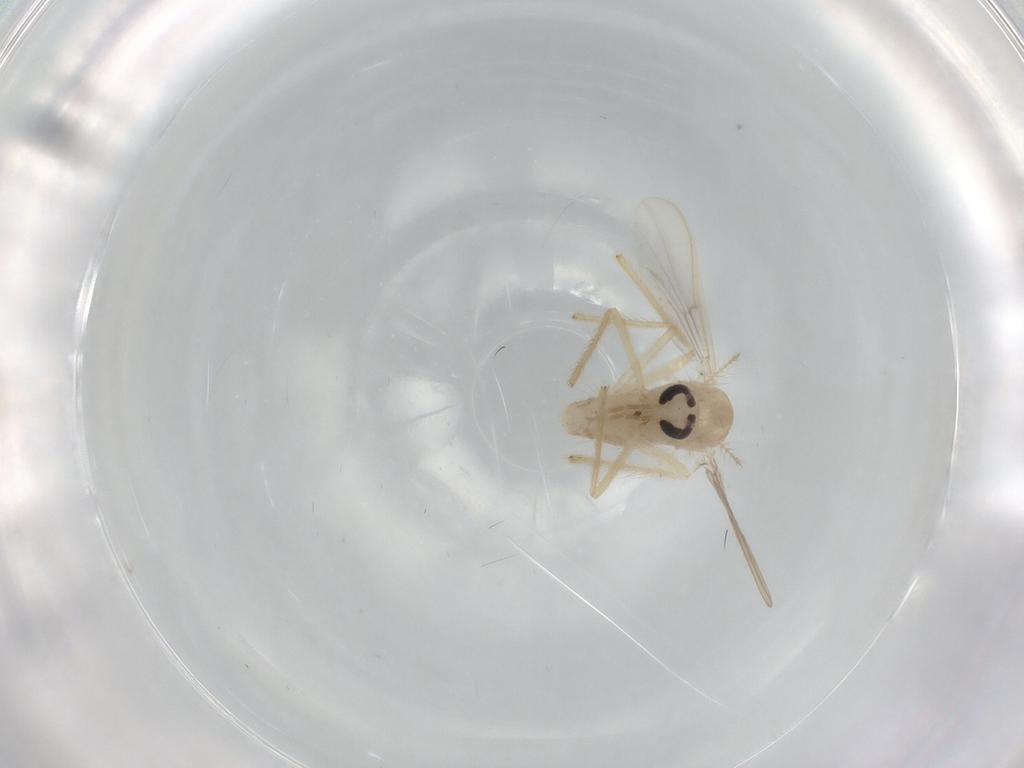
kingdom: Animalia
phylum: Arthropoda
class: Insecta
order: Diptera
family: Chironomidae
